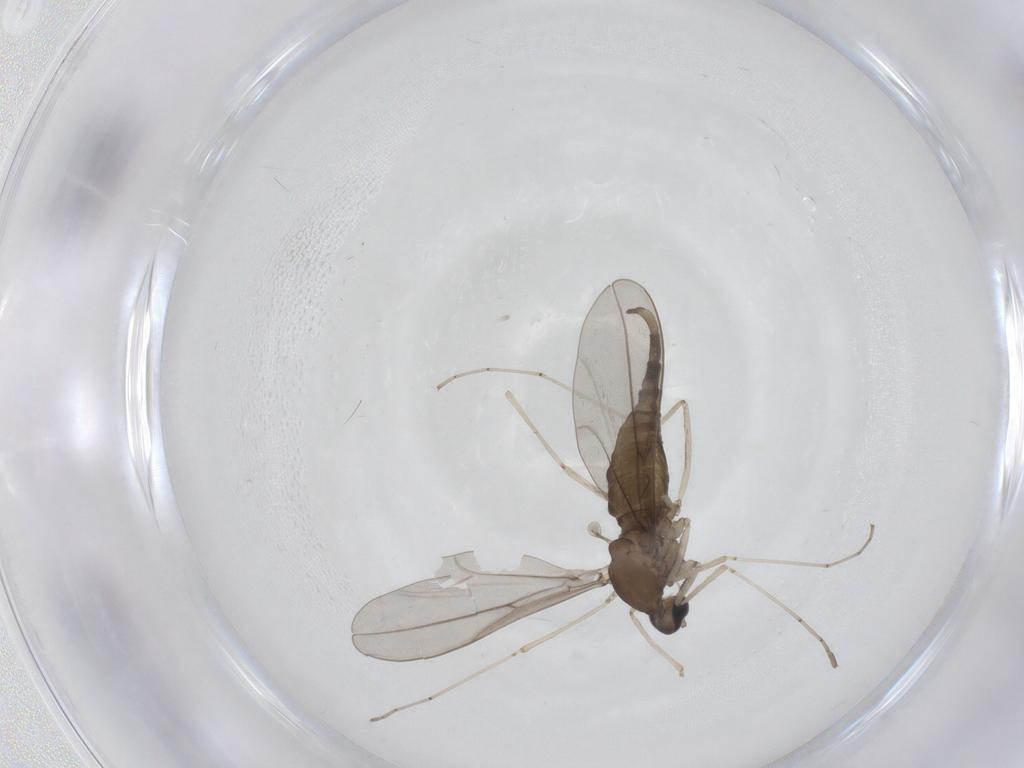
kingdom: Animalia
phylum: Arthropoda
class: Insecta
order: Diptera
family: Cecidomyiidae
